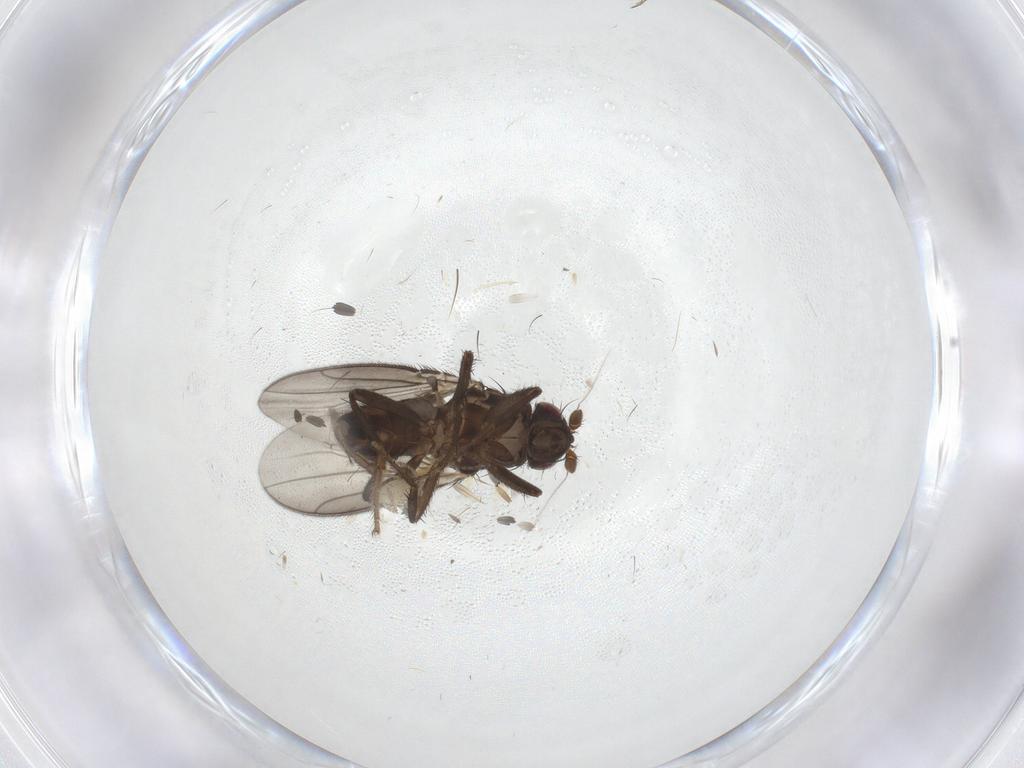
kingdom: Animalia
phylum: Arthropoda
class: Insecta
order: Diptera
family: Sphaeroceridae
